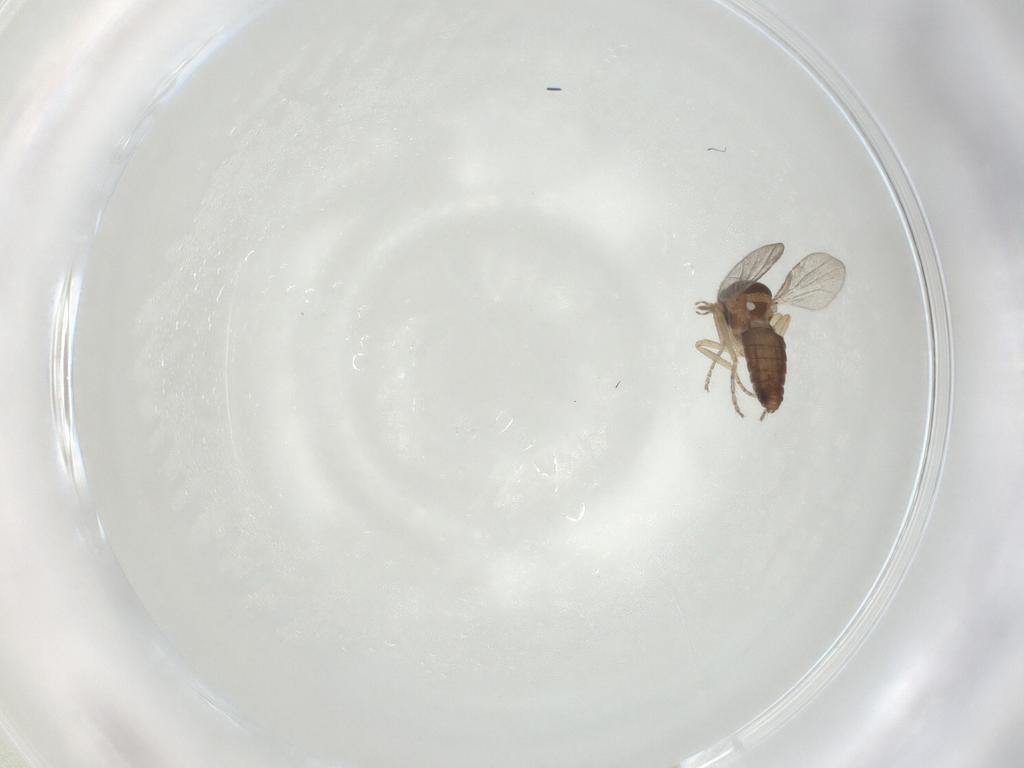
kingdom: Animalia
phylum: Arthropoda
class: Insecta
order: Diptera
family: Ceratopogonidae
